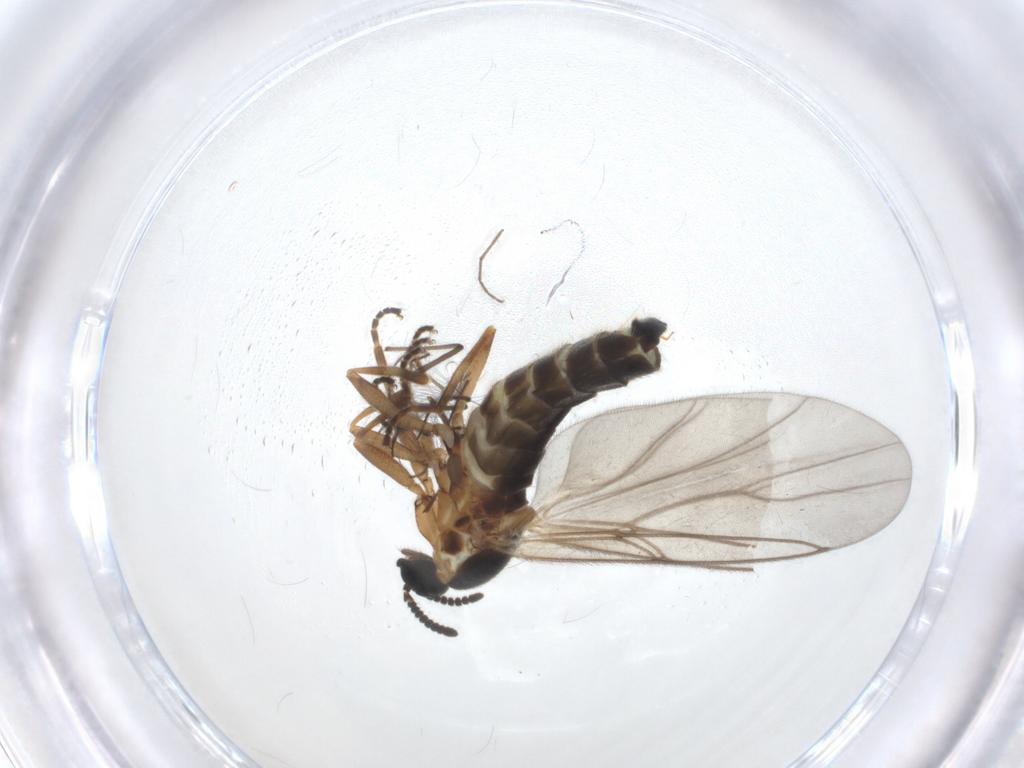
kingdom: Animalia
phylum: Arthropoda
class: Insecta
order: Diptera
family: Scatopsidae
